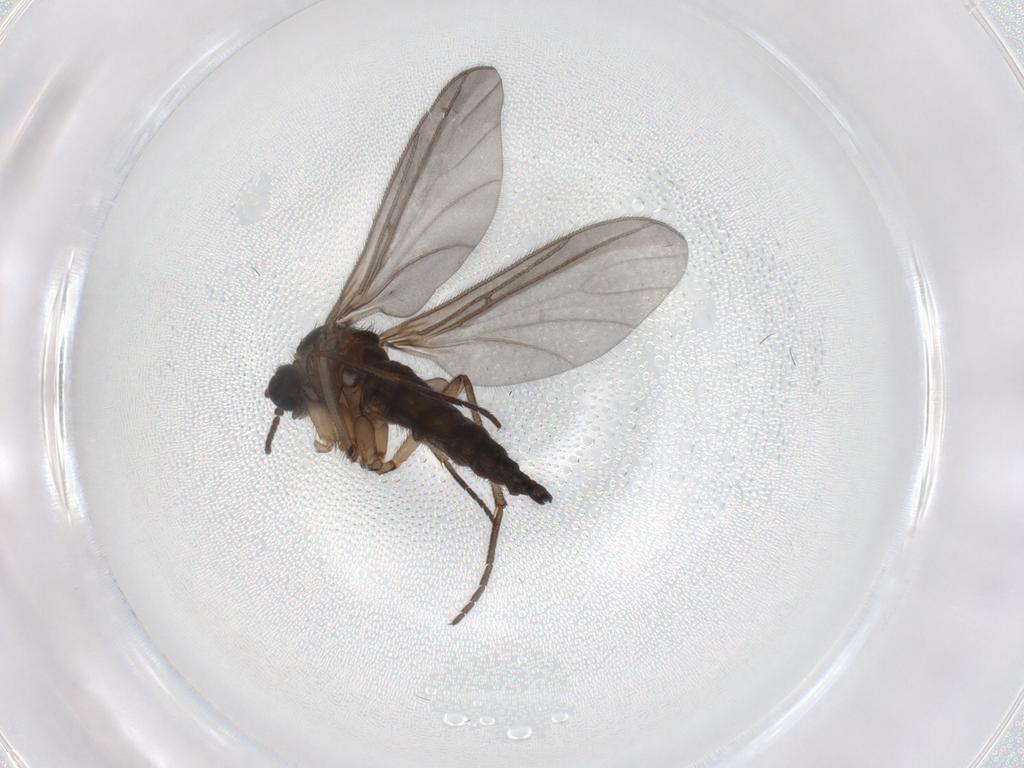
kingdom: Animalia
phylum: Arthropoda
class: Insecta
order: Diptera
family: Sciaridae
